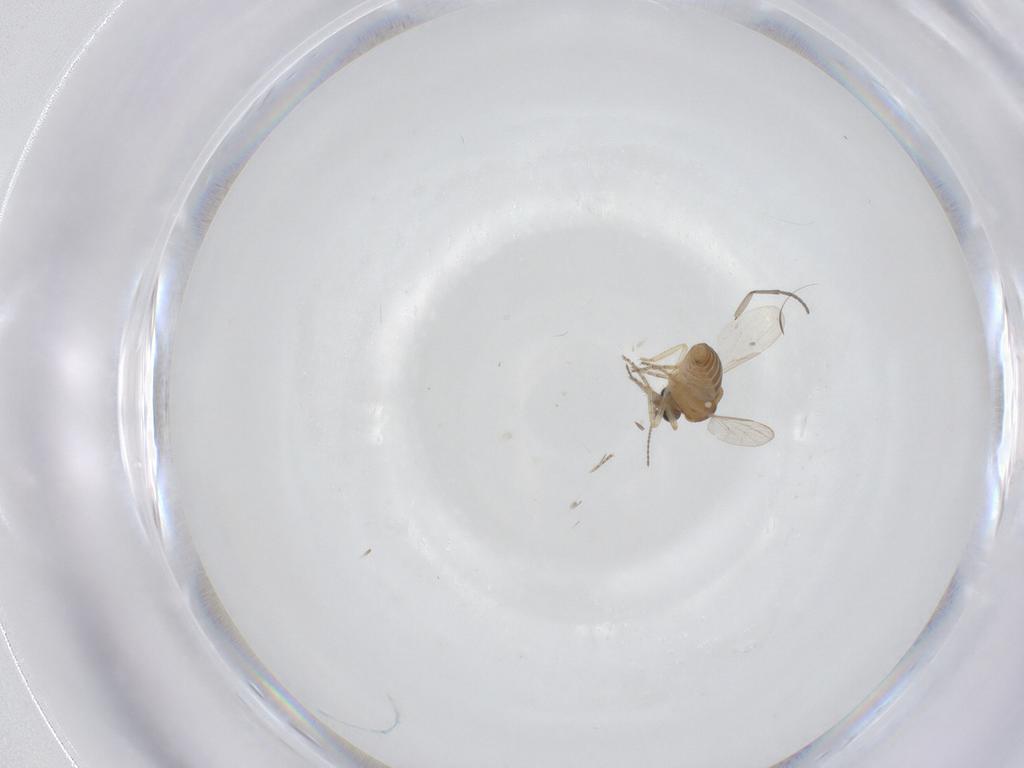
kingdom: Animalia
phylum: Arthropoda
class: Insecta
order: Diptera
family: Ceratopogonidae
